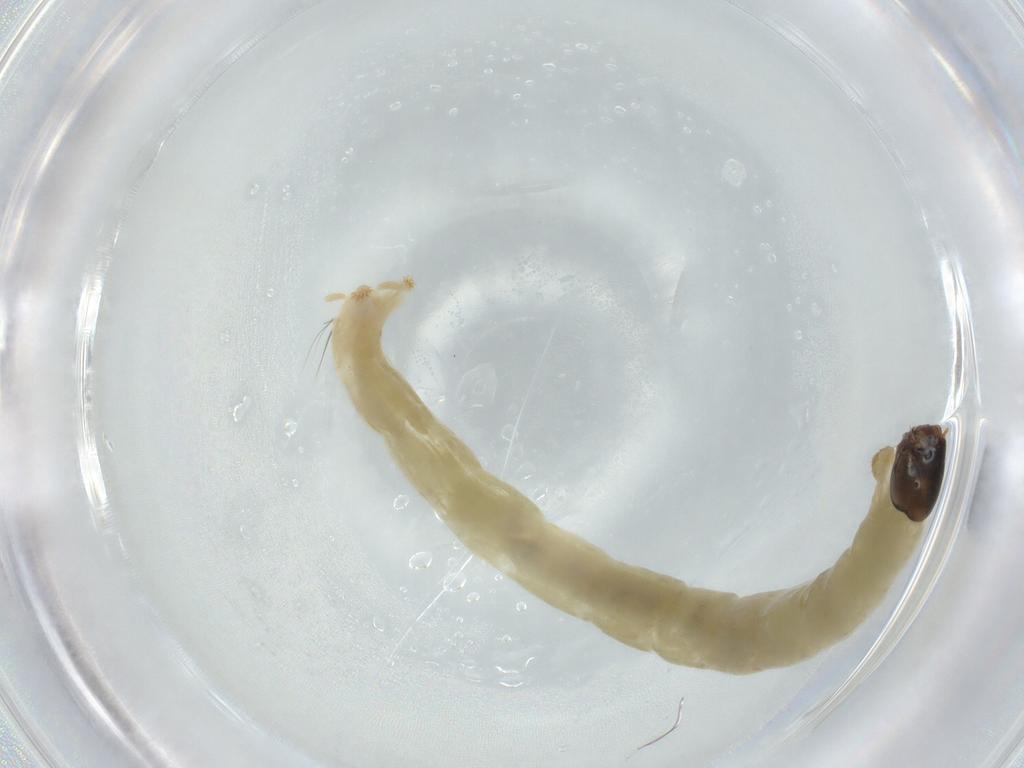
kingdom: Animalia
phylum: Arthropoda
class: Insecta
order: Diptera
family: Chironomidae
